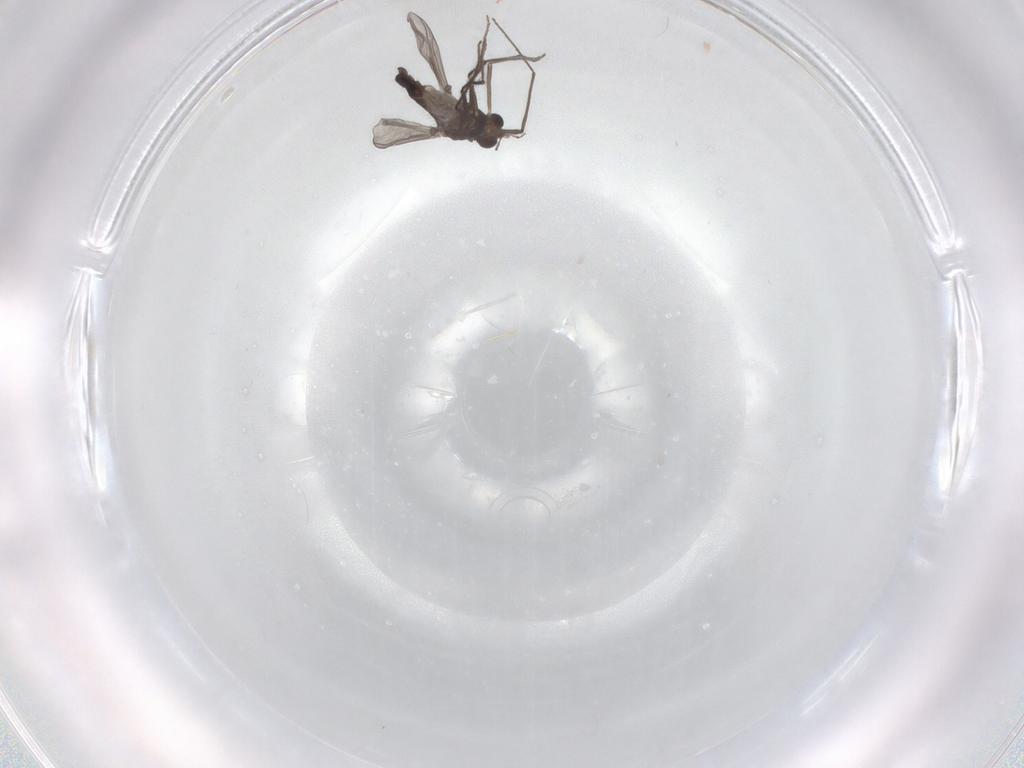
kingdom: Animalia
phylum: Arthropoda
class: Insecta
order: Diptera
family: Chironomidae
